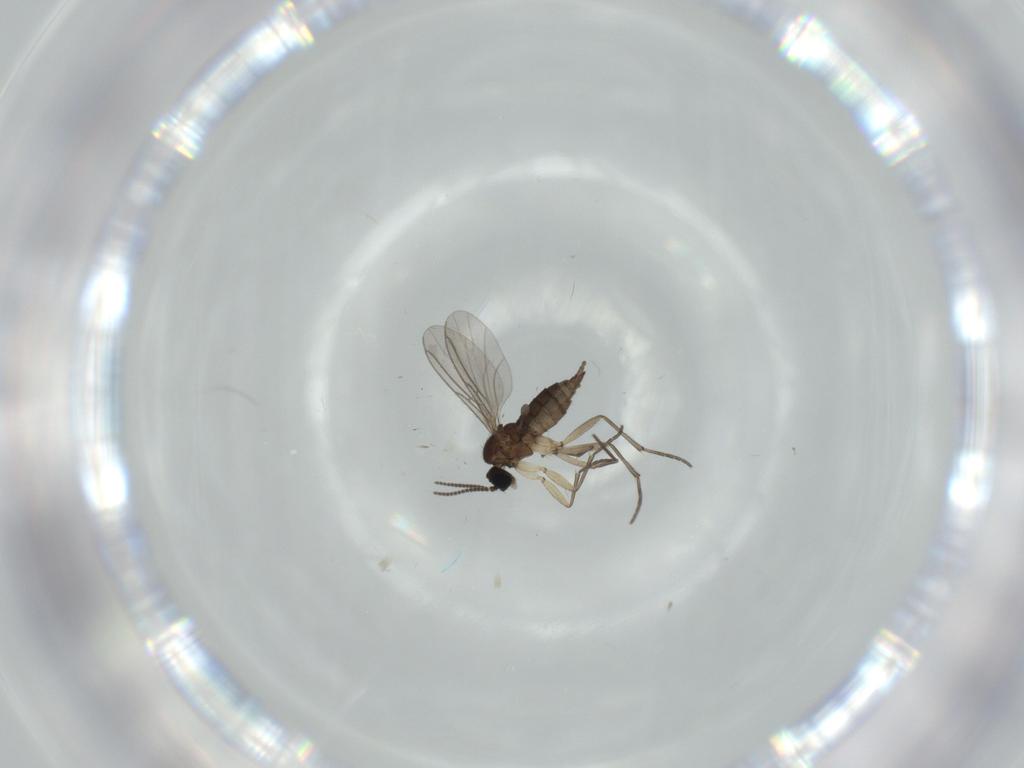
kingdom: Animalia
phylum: Arthropoda
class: Insecta
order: Diptera
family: Sciaridae
